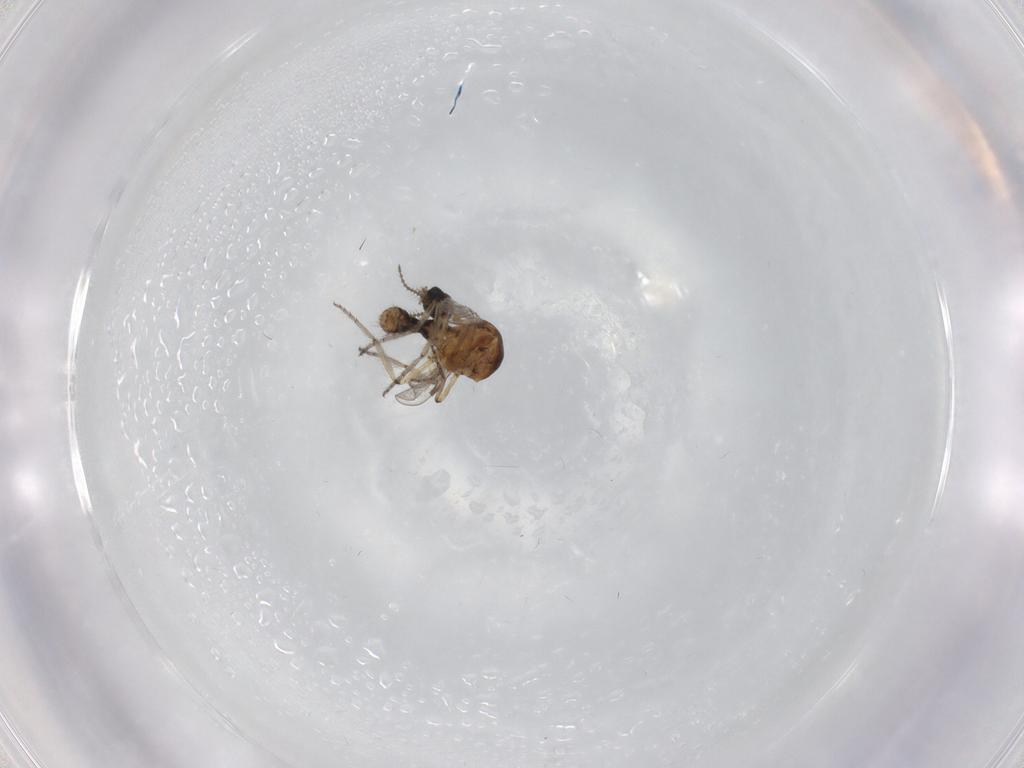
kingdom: Animalia
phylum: Arthropoda
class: Insecta
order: Diptera
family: Ceratopogonidae
